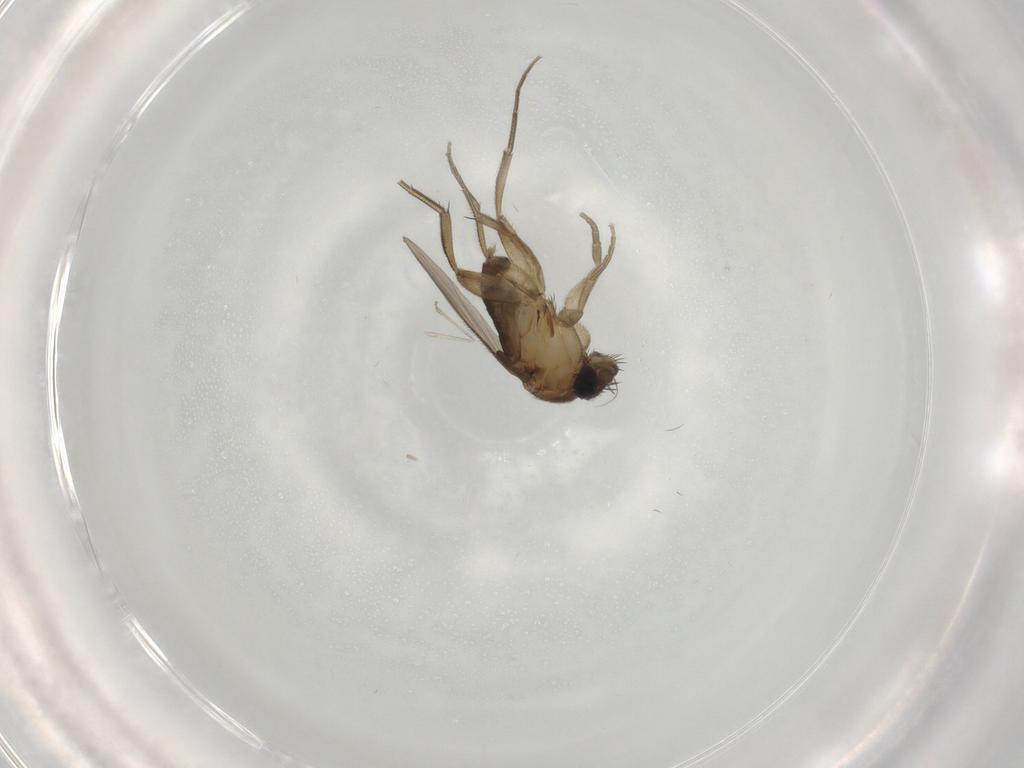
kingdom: Animalia
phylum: Arthropoda
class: Insecta
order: Diptera
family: Phoridae
